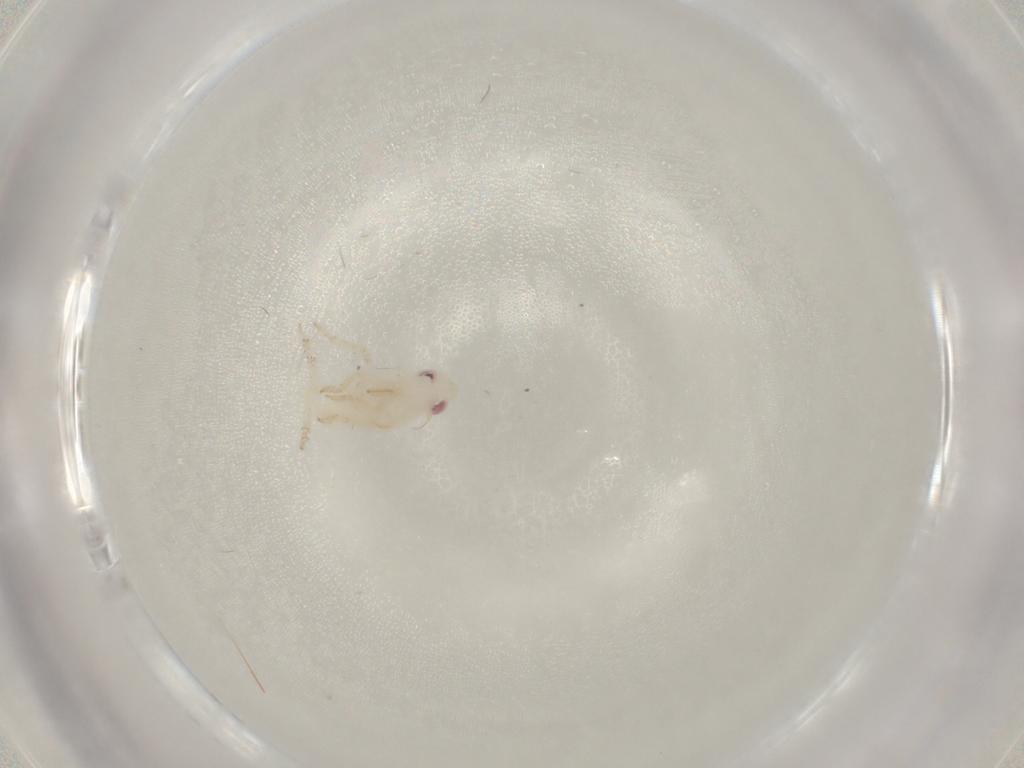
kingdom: Animalia
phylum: Arthropoda
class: Insecta
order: Hemiptera
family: Tropiduchidae
